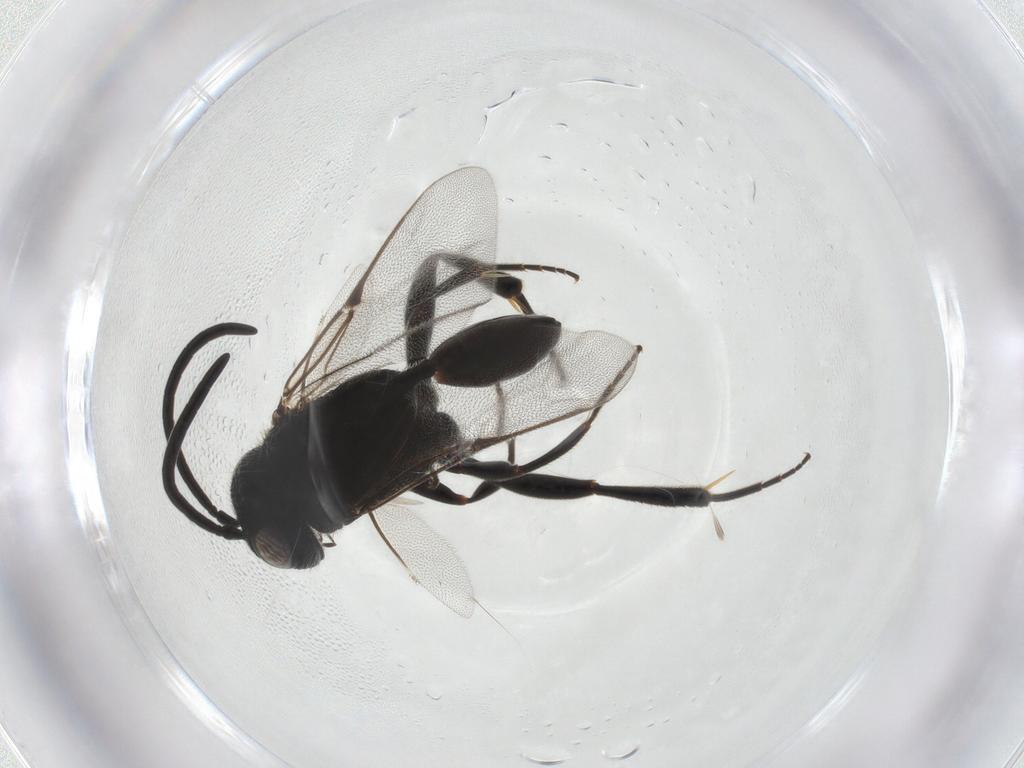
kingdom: Animalia
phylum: Arthropoda
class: Insecta
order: Hymenoptera
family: Evaniidae
